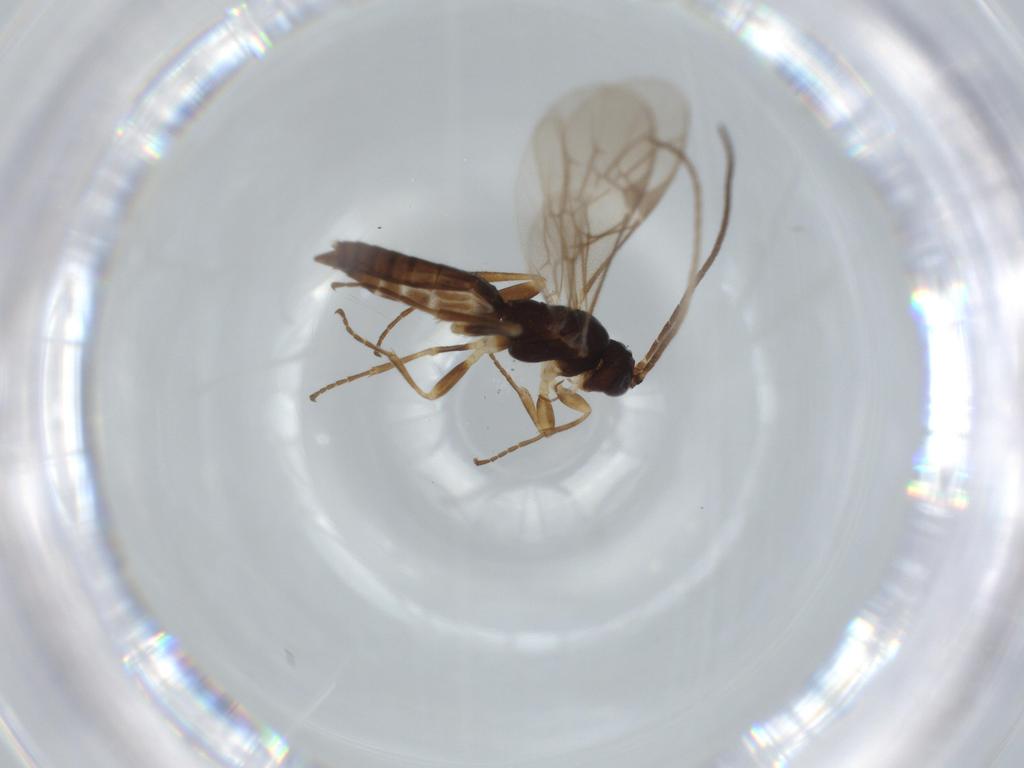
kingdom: Animalia
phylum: Arthropoda
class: Insecta
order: Hymenoptera
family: Ichneumonidae
